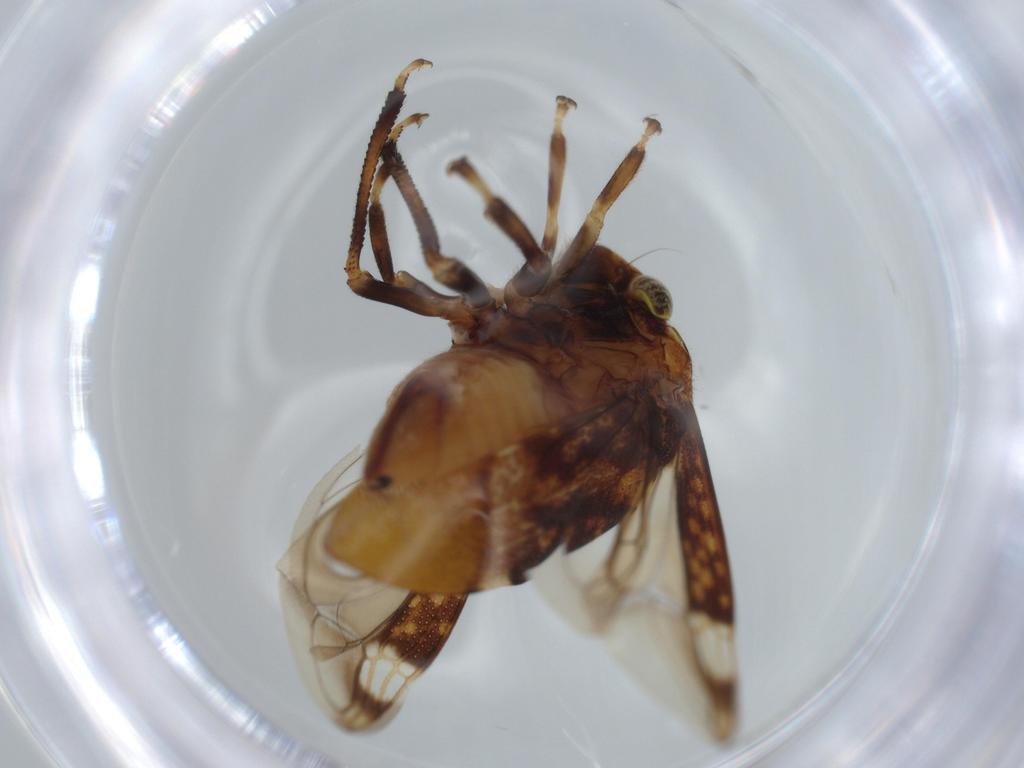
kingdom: Animalia
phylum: Arthropoda
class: Insecta
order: Hemiptera
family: Membracidae
